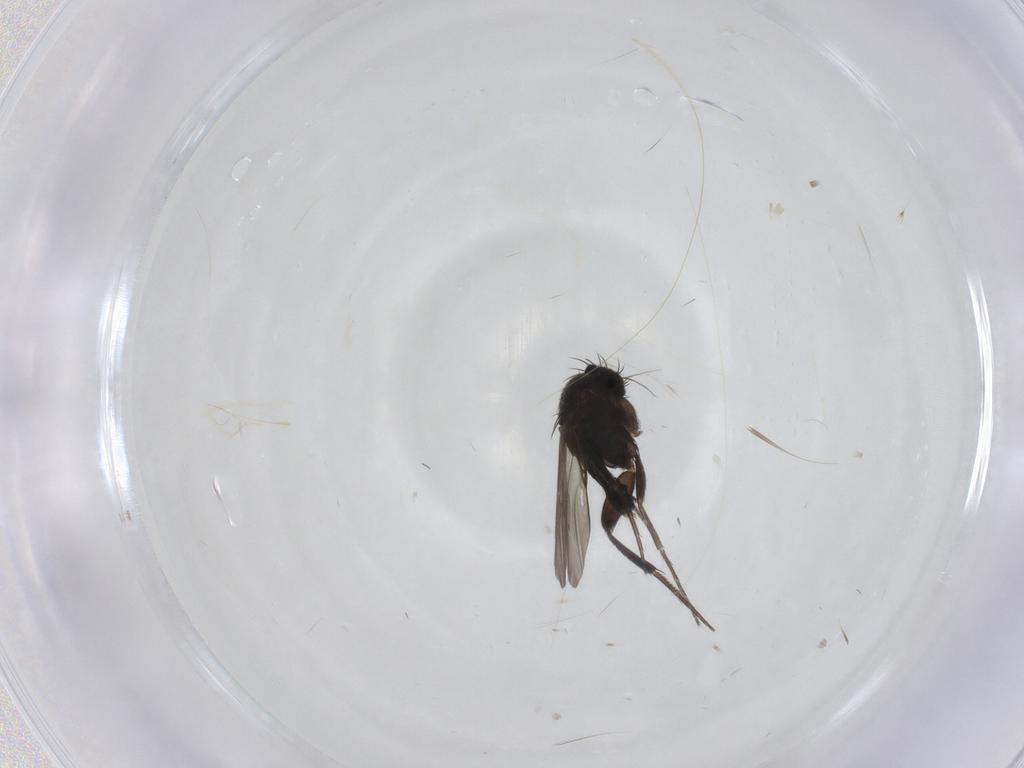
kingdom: Animalia
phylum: Arthropoda
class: Insecta
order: Diptera
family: Phoridae
